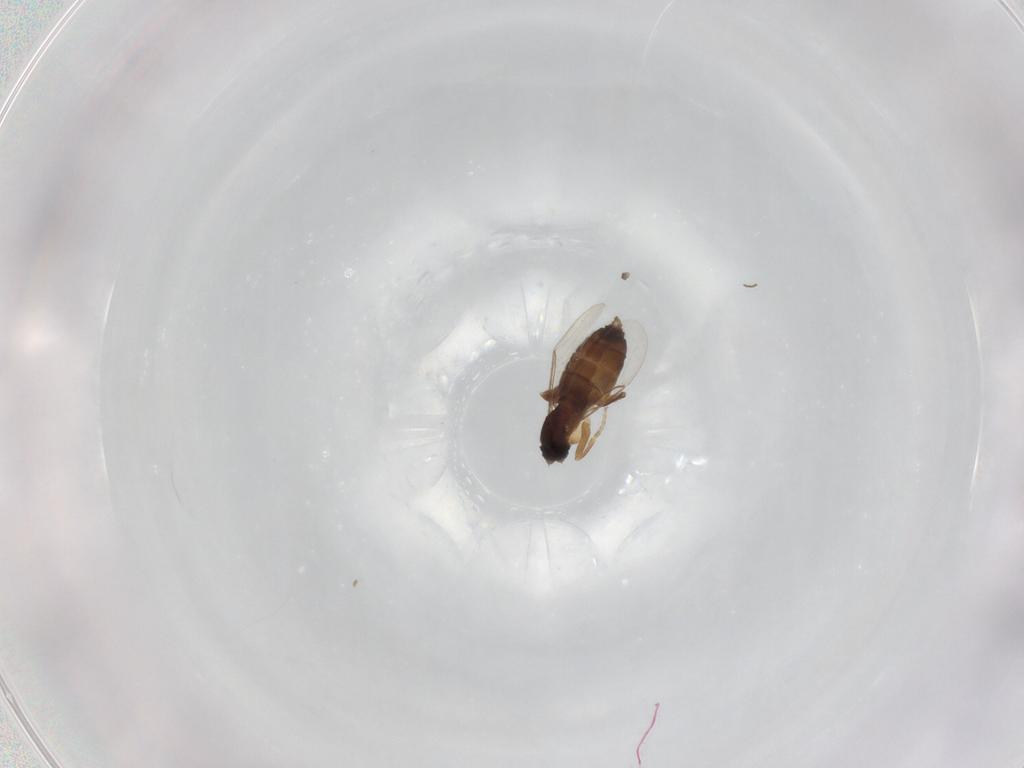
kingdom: Animalia
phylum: Arthropoda
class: Insecta
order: Diptera
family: Phoridae
